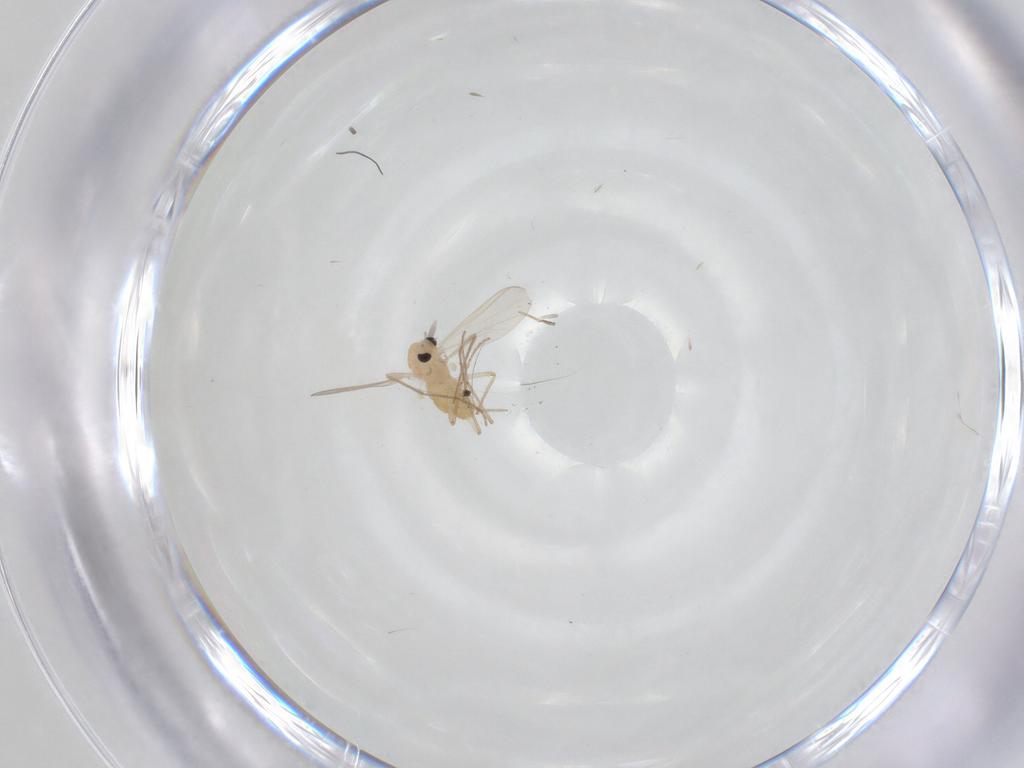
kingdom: Animalia
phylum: Arthropoda
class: Insecta
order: Diptera
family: Chironomidae
